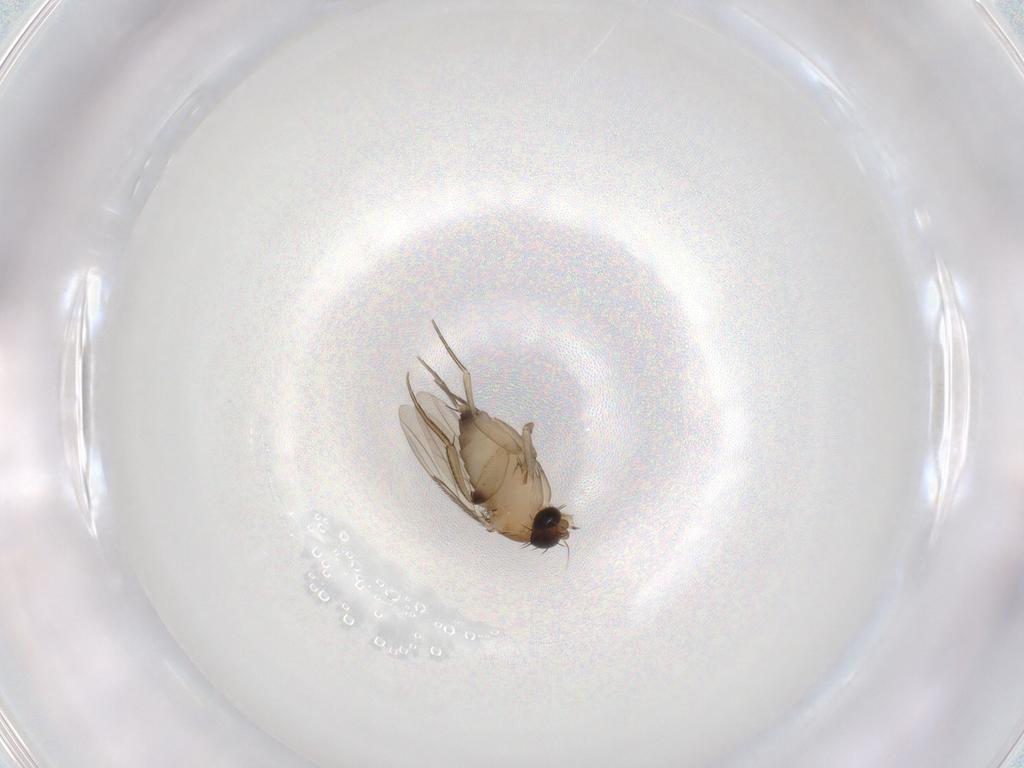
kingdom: Animalia
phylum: Arthropoda
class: Insecta
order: Diptera
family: Phoridae
